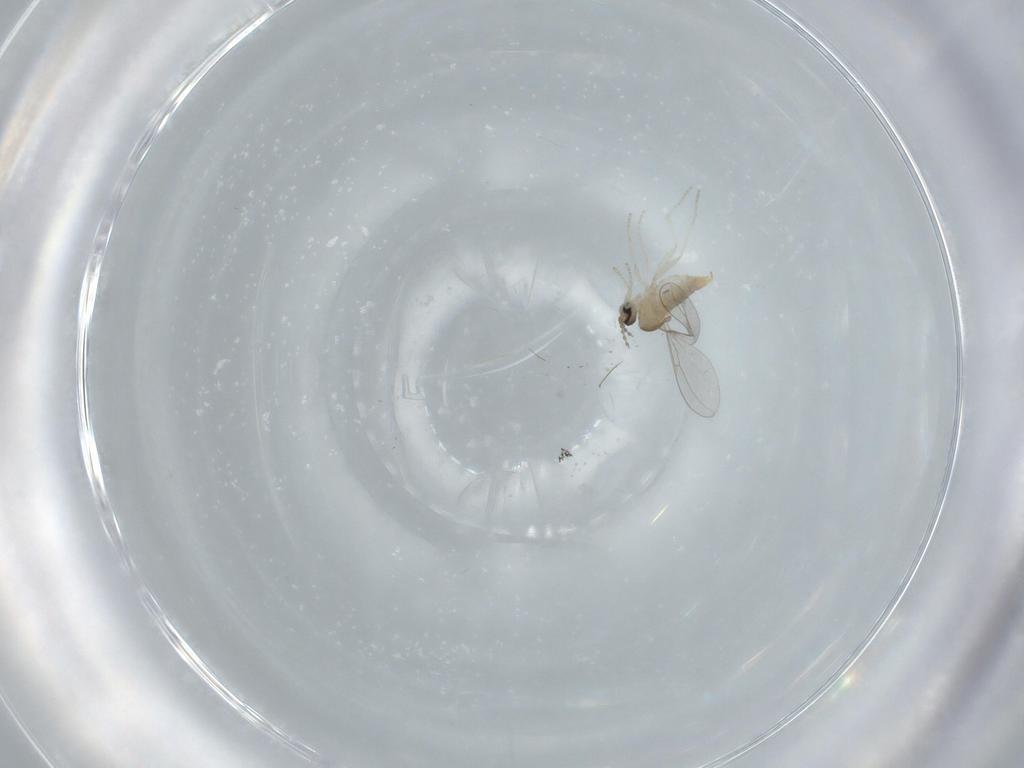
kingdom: Animalia
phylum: Arthropoda
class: Insecta
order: Diptera
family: Cecidomyiidae
